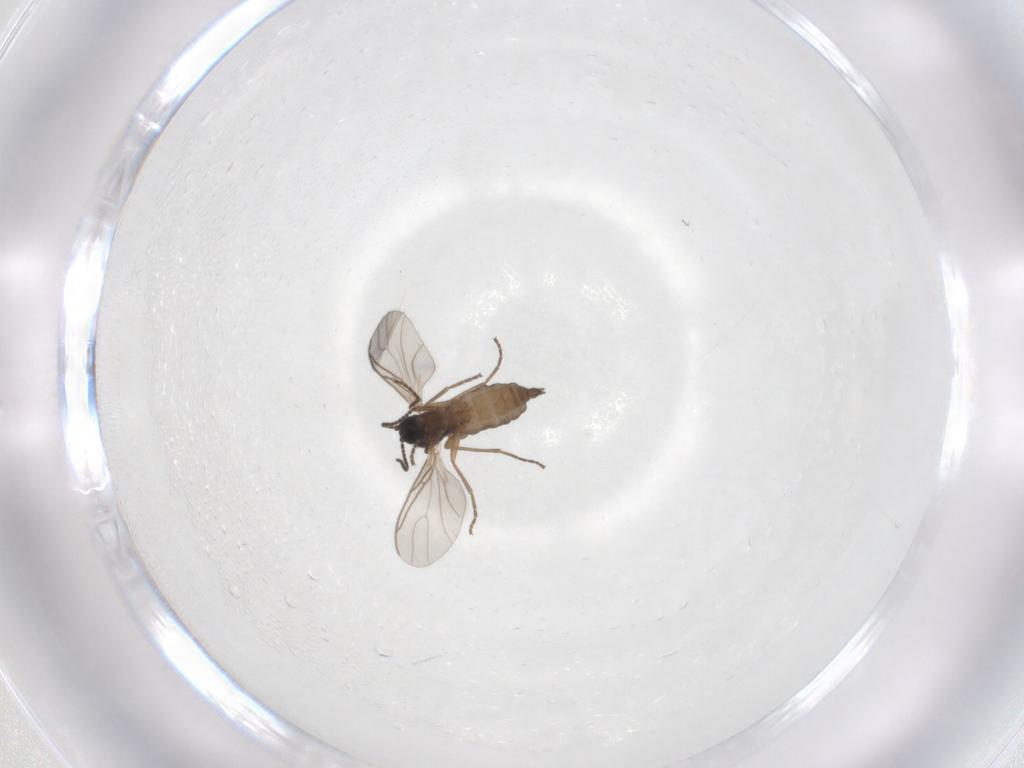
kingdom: Animalia
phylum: Arthropoda
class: Insecta
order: Diptera
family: Sciaridae
